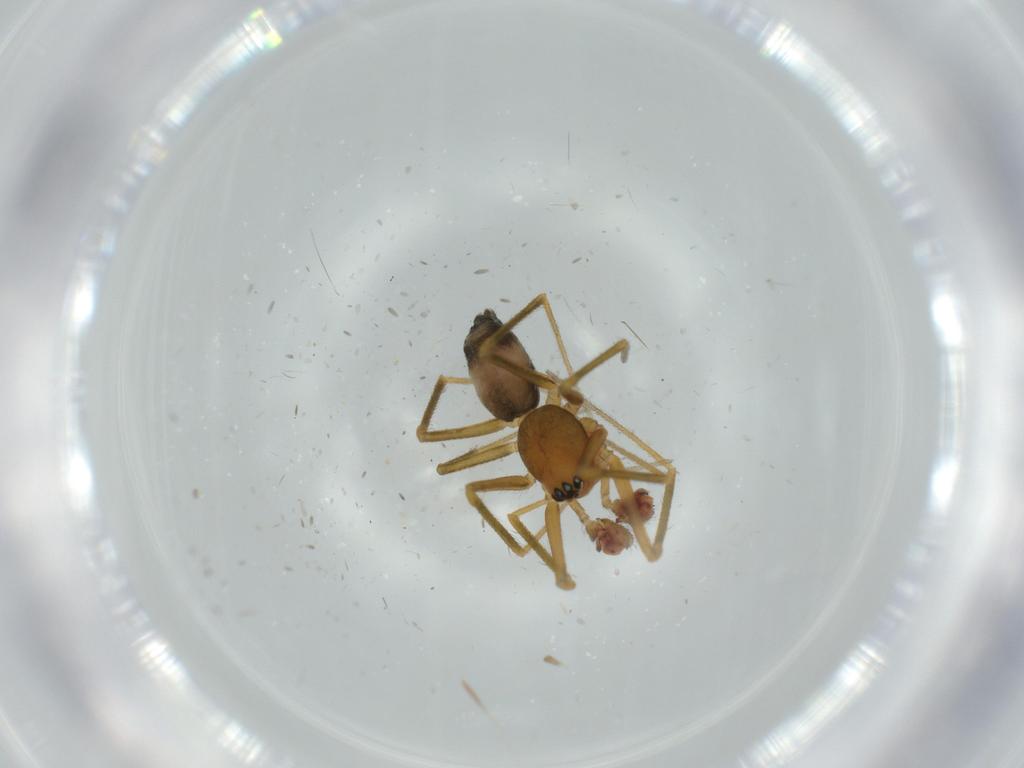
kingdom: Animalia
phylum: Arthropoda
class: Arachnida
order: Araneae
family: Linyphiidae
